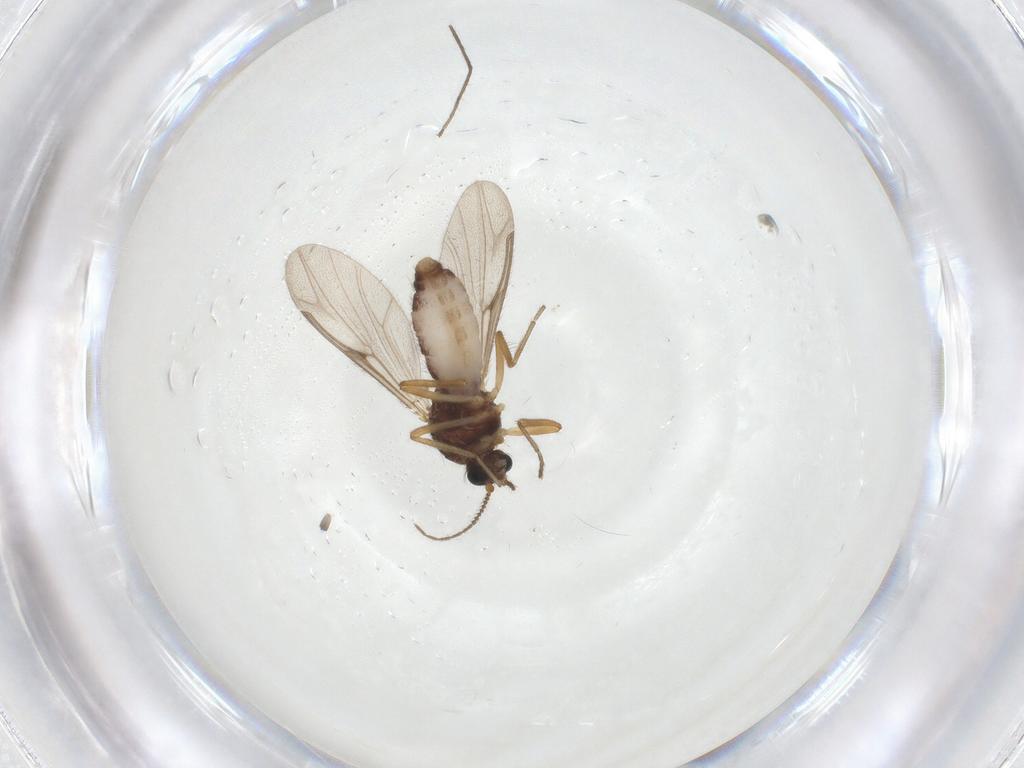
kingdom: Animalia
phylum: Arthropoda
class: Insecta
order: Diptera
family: Ceratopogonidae
